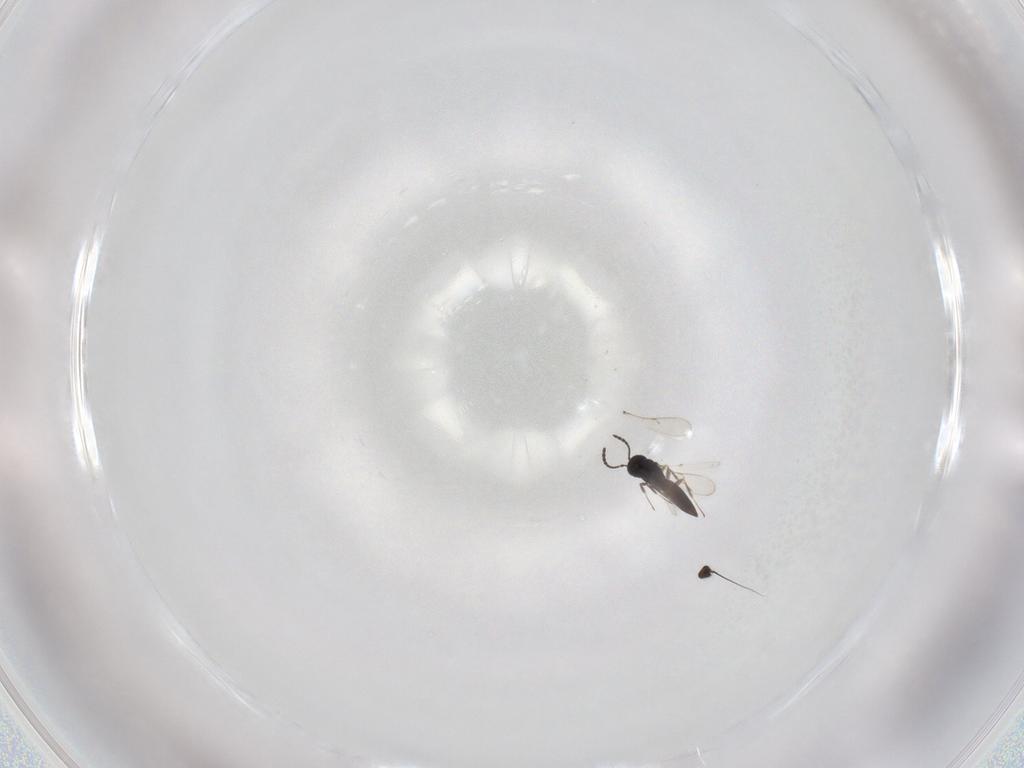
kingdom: Animalia
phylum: Arthropoda
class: Insecta
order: Hymenoptera
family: Scelionidae
